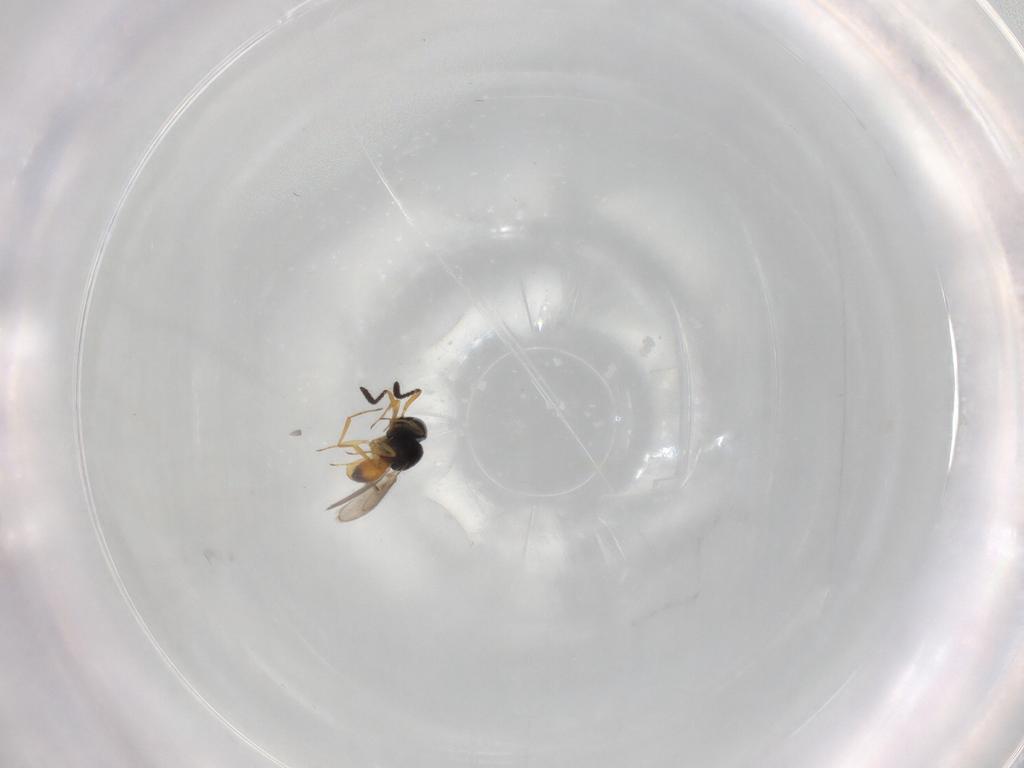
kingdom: Animalia
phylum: Arthropoda
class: Insecta
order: Hymenoptera
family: Scelionidae
